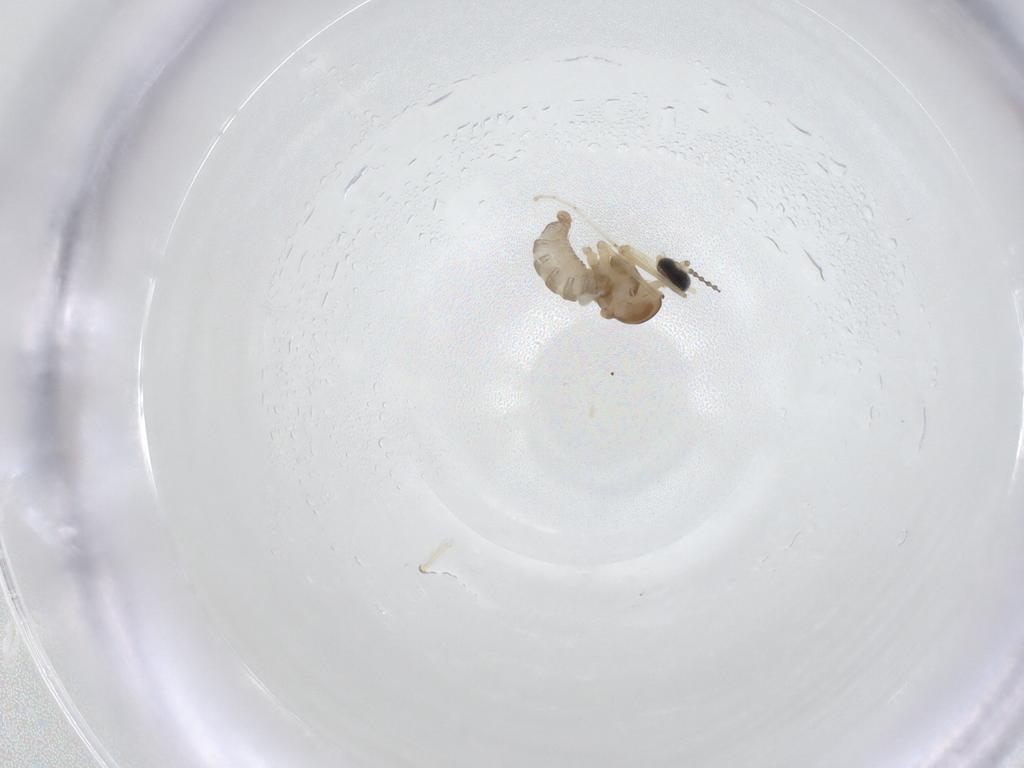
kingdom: Animalia
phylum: Arthropoda
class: Insecta
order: Diptera
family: Cecidomyiidae
